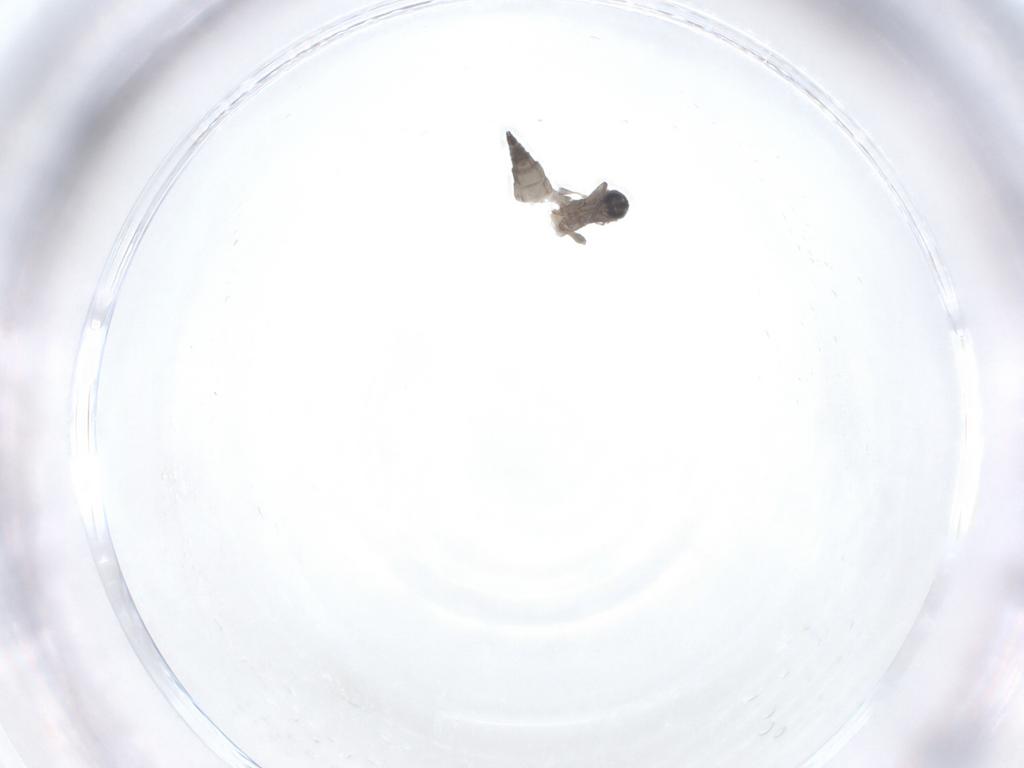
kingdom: Animalia
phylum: Arthropoda
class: Insecta
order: Diptera
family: Sciaridae
